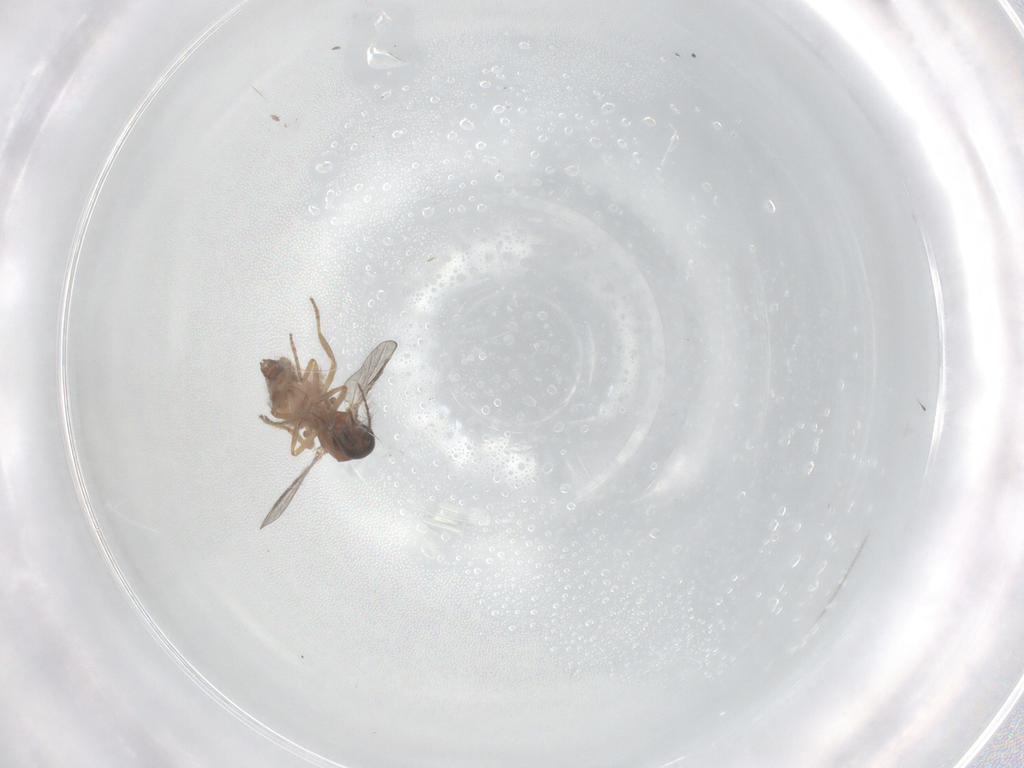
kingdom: Animalia
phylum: Arthropoda
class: Insecta
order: Diptera
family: Ceratopogonidae
